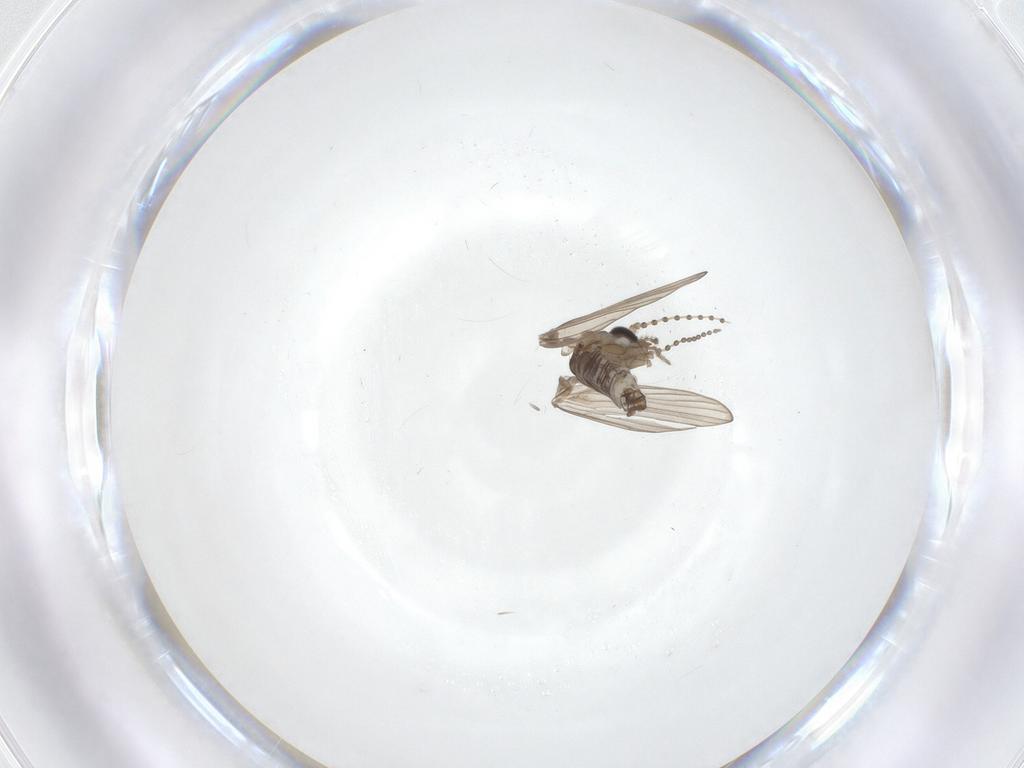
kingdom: Animalia
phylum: Arthropoda
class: Insecta
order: Diptera
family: Psychodidae
